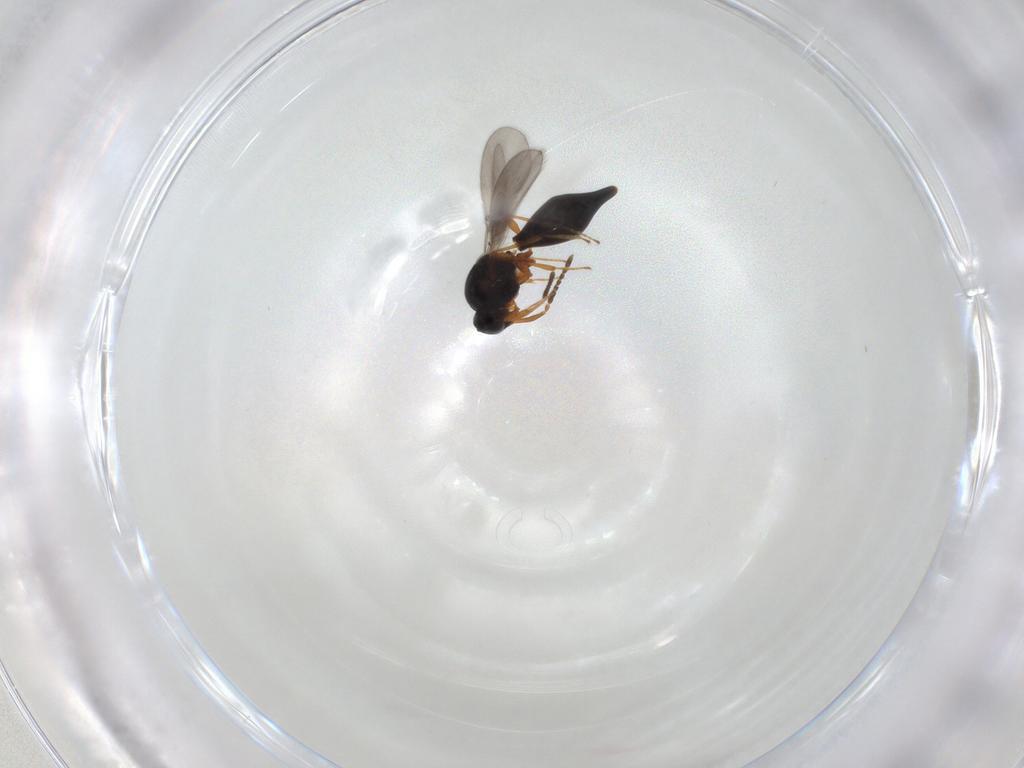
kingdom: Animalia
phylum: Arthropoda
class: Insecta
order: Hymenoptera
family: Platygastridae
